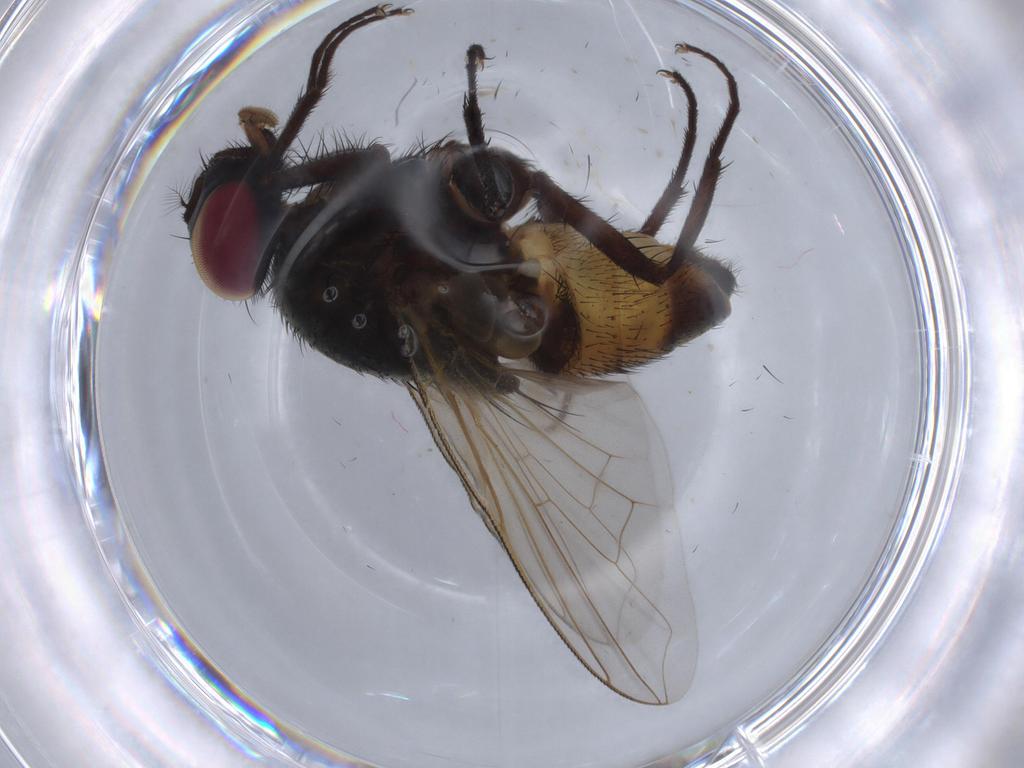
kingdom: Animalia
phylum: Arthropoda
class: Insecta
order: Diptera
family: Muscidae
